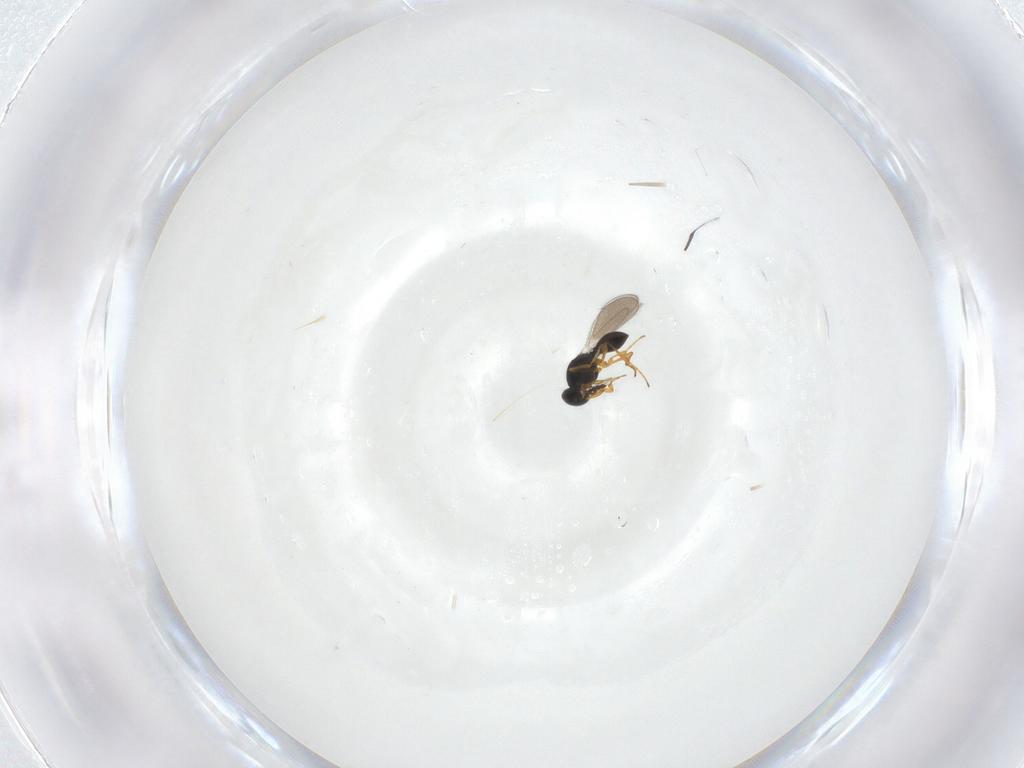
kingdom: Animalia
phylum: Arthropoda
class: Insecta
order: Hymenoptera
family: Platygastridae
